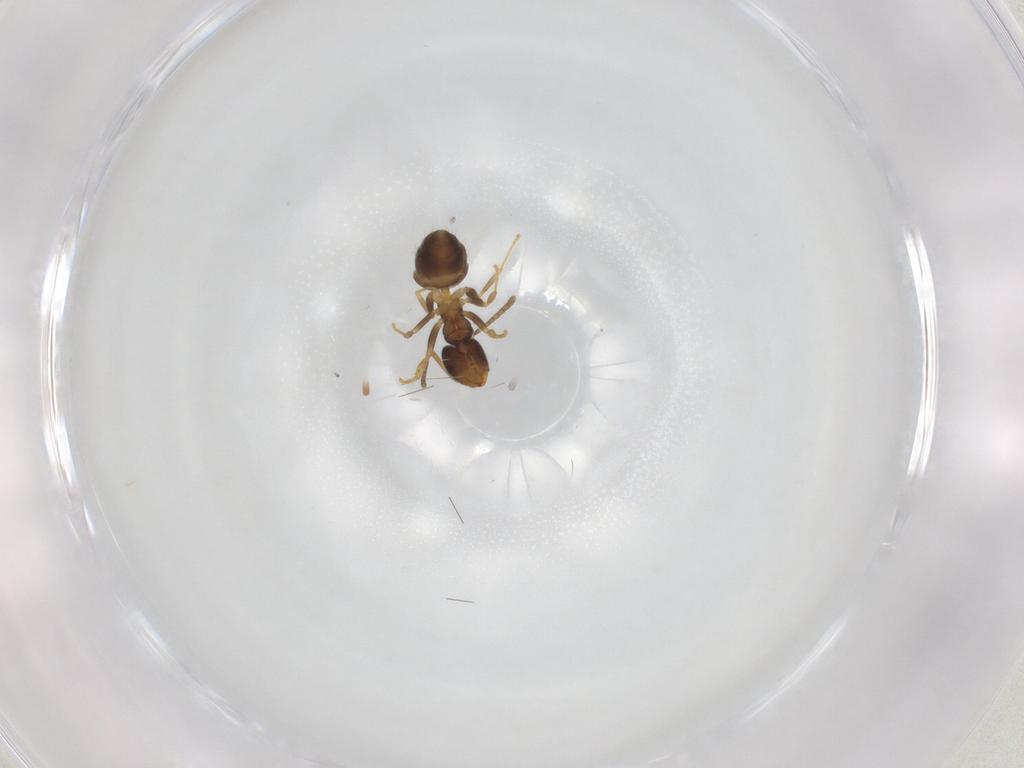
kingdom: Animalia
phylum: Arthropoda
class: Insecta
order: Hymenoptera
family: Formicidae
